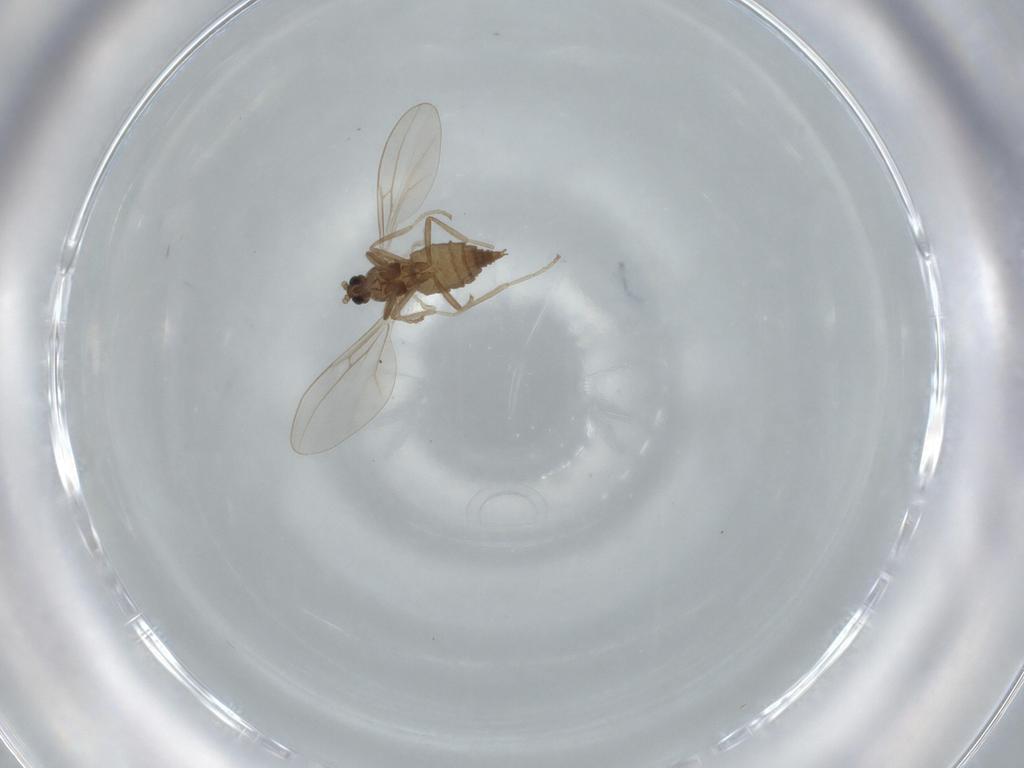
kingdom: Animalia
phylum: Arthropoda
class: Insecta
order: Diptera
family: Cecidomyiidae
